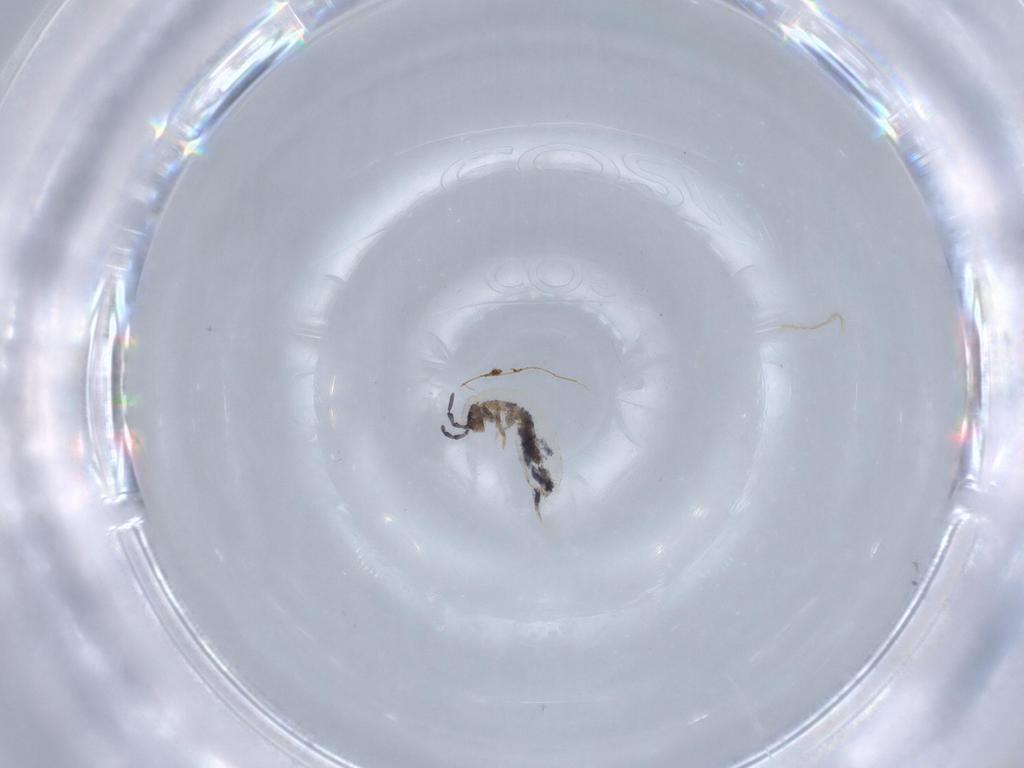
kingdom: Animalia
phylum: Arthropoda
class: Collembola
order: Entomobryomorpha
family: Isotomidae
